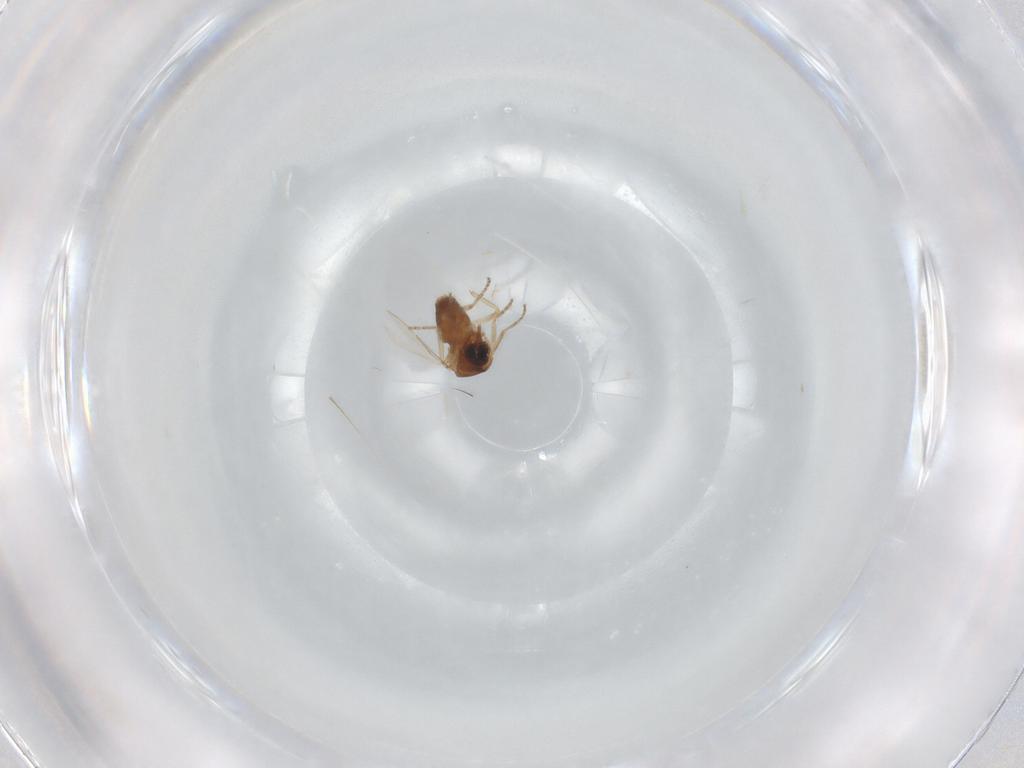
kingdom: Animalia
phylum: Arthropoda
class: Insecta
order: Diptera
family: Ceratopogonidae
